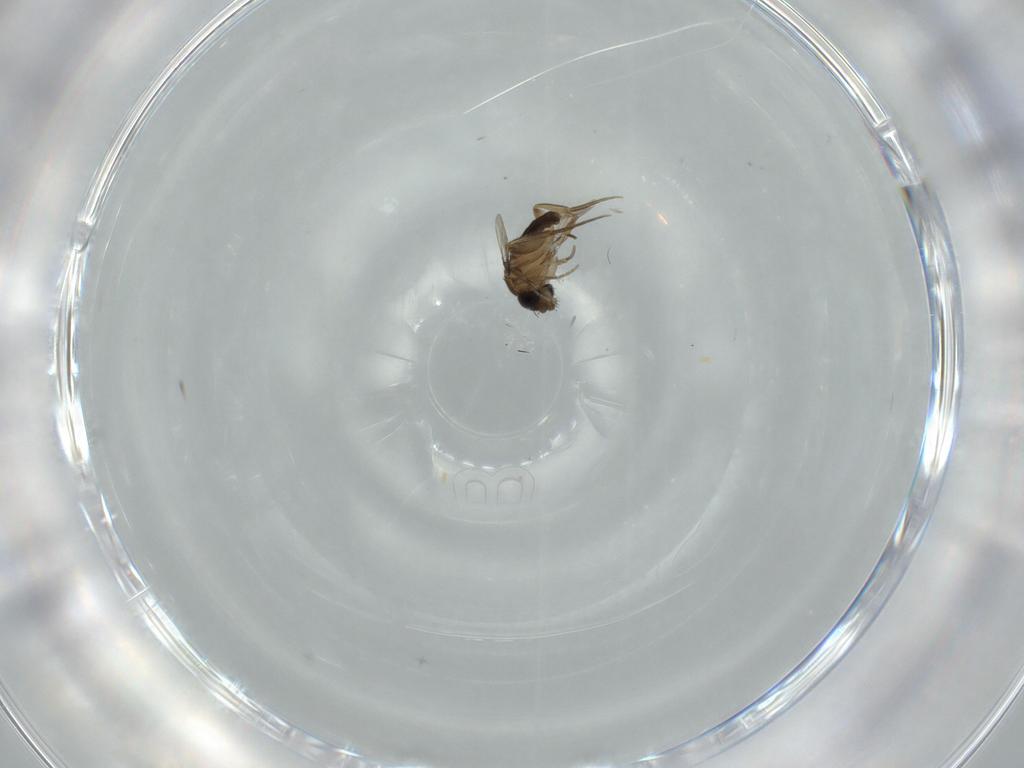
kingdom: Animalia
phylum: Arthropoda
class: Insecta
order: Diptera
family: Phoridae
